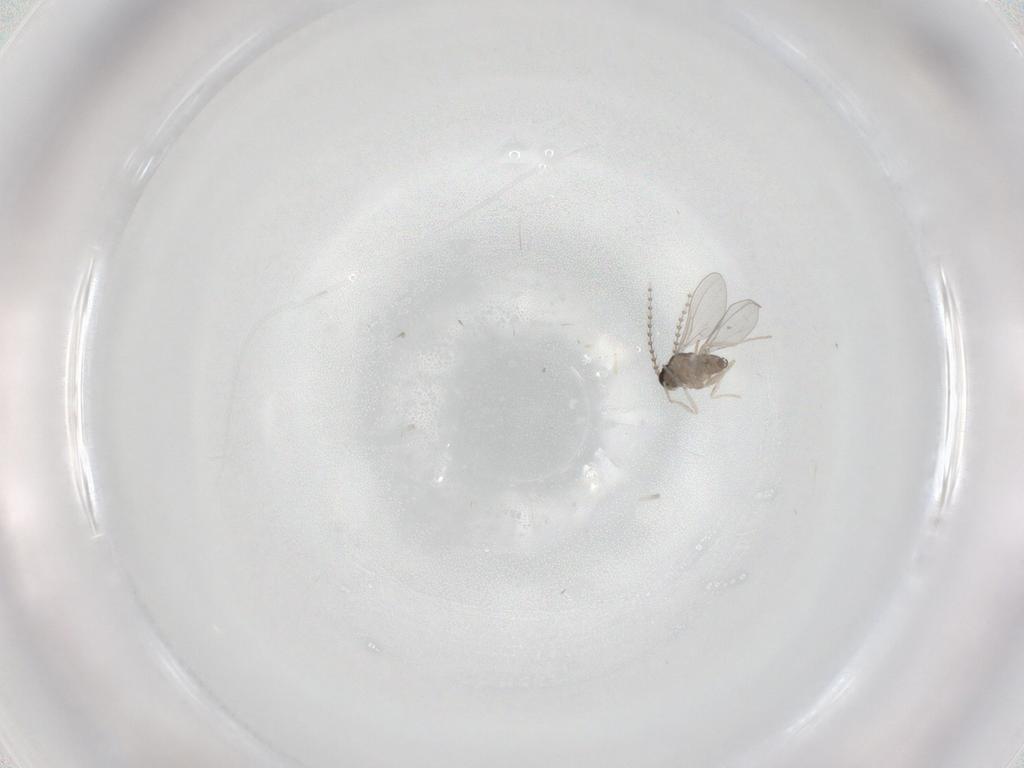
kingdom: Animalia
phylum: Arthropoda
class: Insecta
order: Diptera
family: Cecidomyiidae
